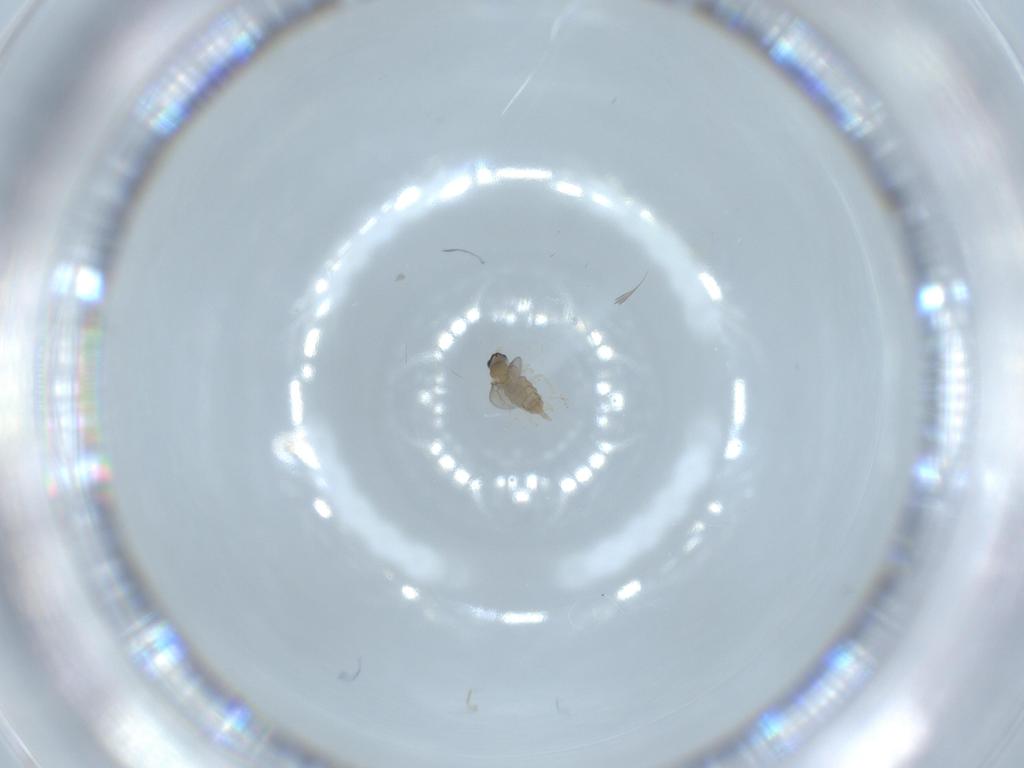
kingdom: Animalia
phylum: Arthropoda
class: Insecta
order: Diptera
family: Cecidomyiidae
